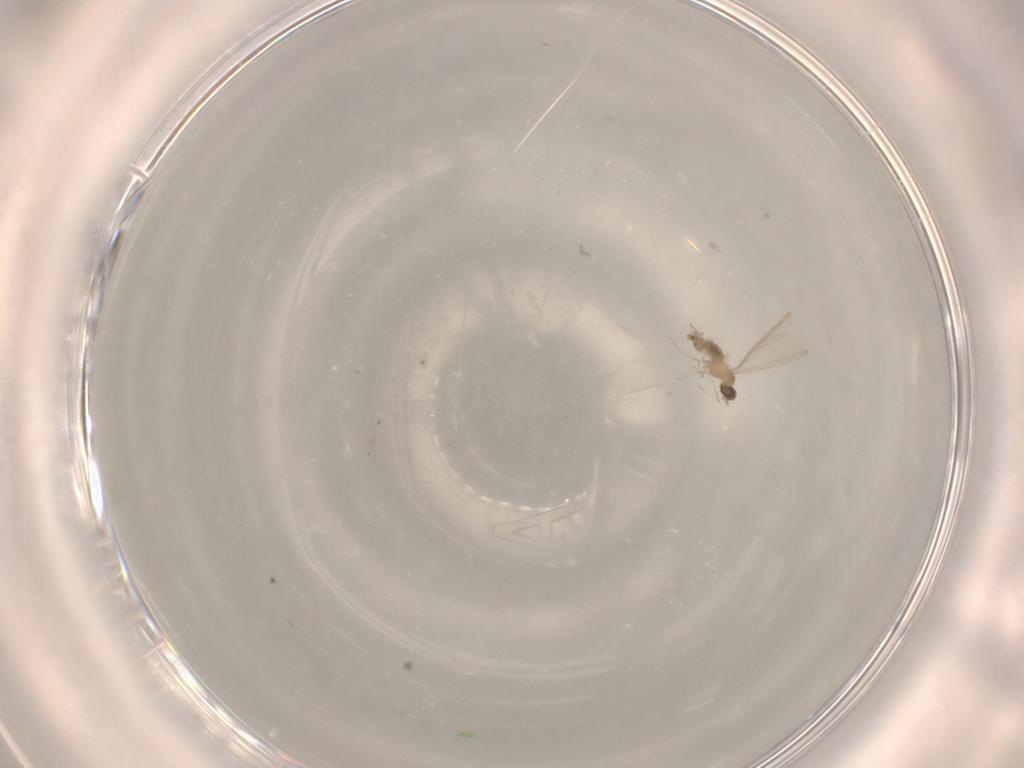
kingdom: Animalia
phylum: Arthropoda
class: Insecta
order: Diptera
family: Cecidomyiidae
